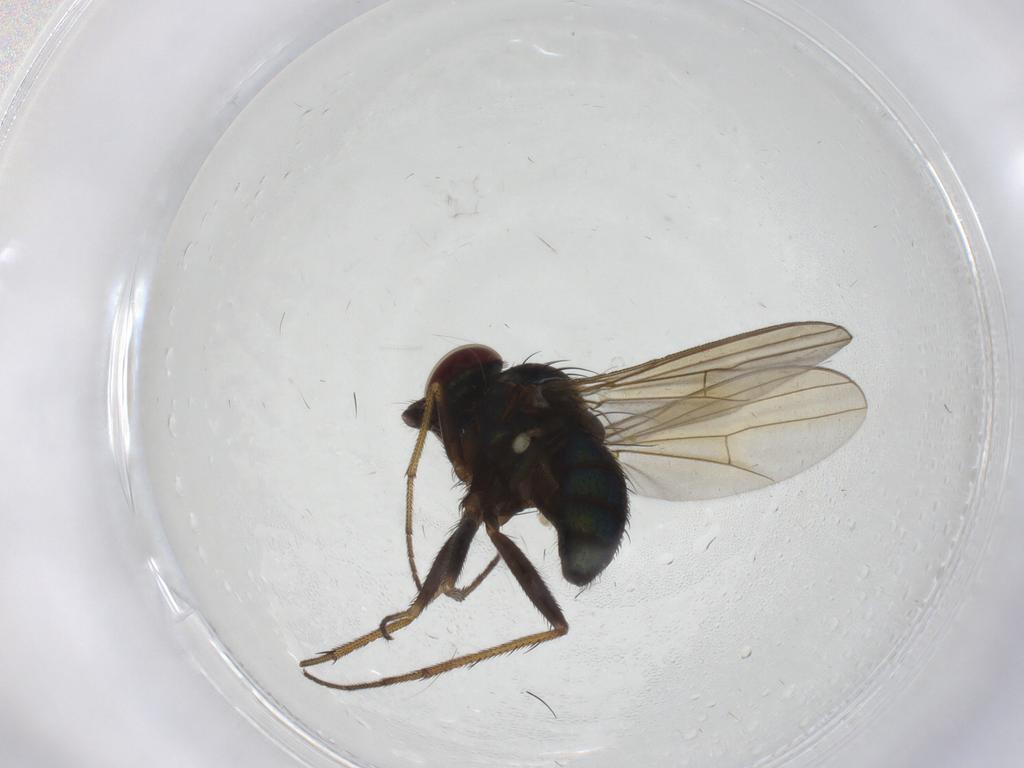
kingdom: Animalia
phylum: Arthropoda
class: Insecta
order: Diptera
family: Dolichopodidae
